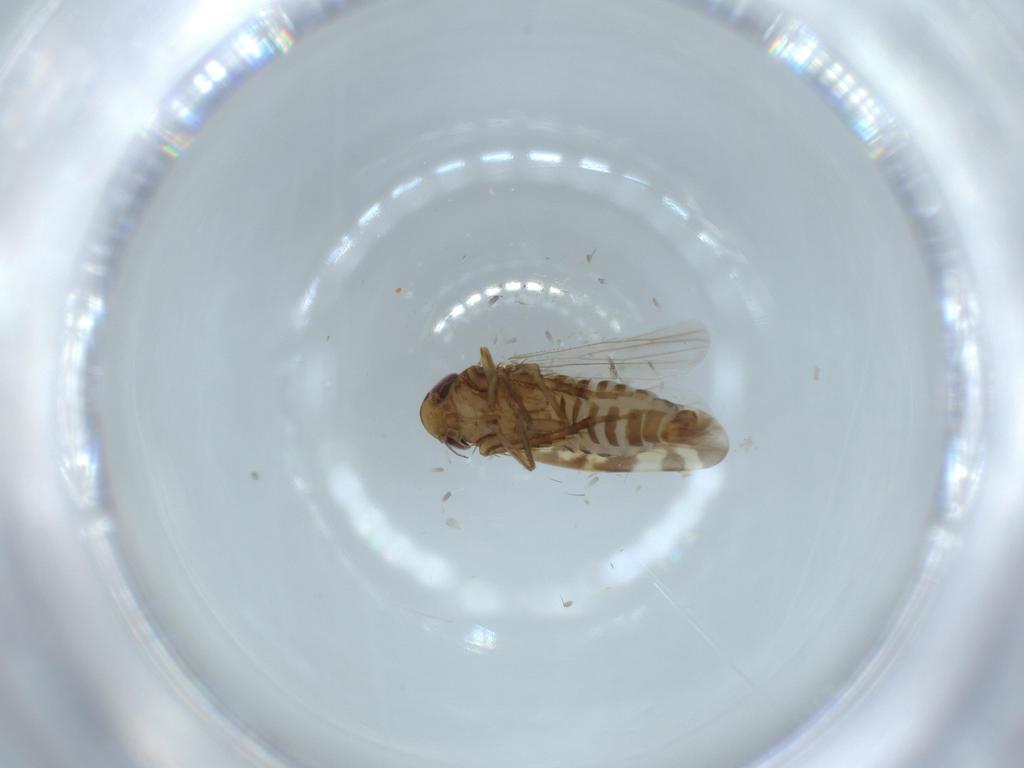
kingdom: Animalia
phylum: Arthropoda
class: Insecta
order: Hemiptera
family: Cicadellidae
